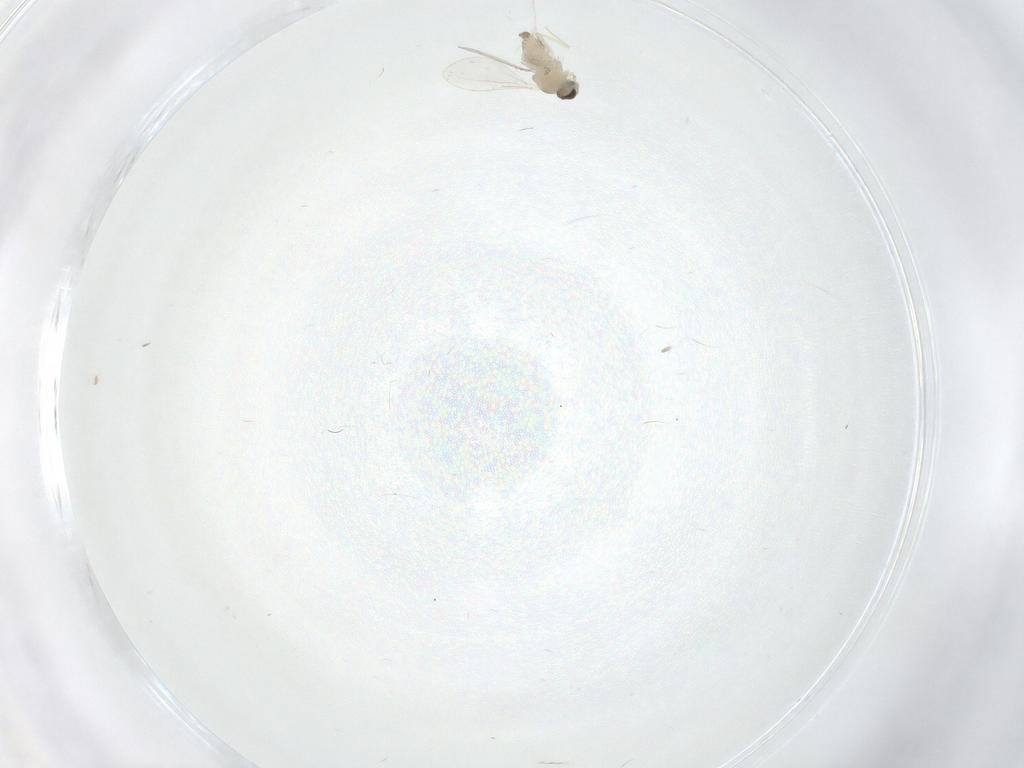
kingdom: Animalia
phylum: Arthropoda
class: Insecta
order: Diptera
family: Cecidomyiidae
